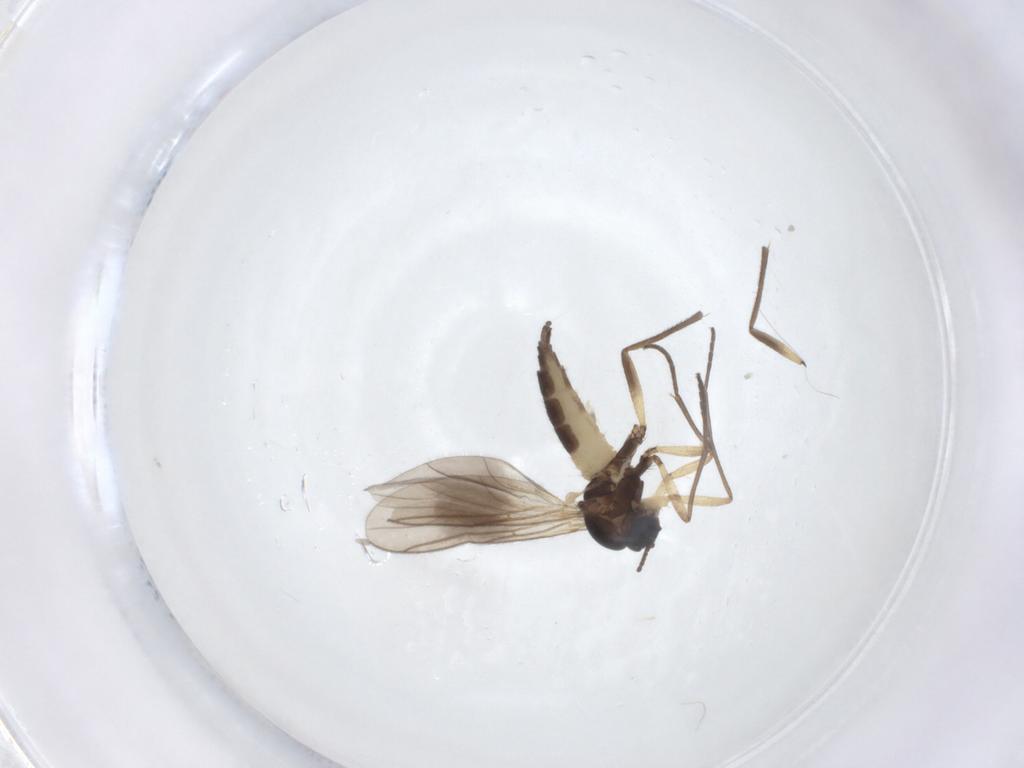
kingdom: Animalia
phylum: Arthropoda
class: Insecta
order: Diptera
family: Sciaridae
